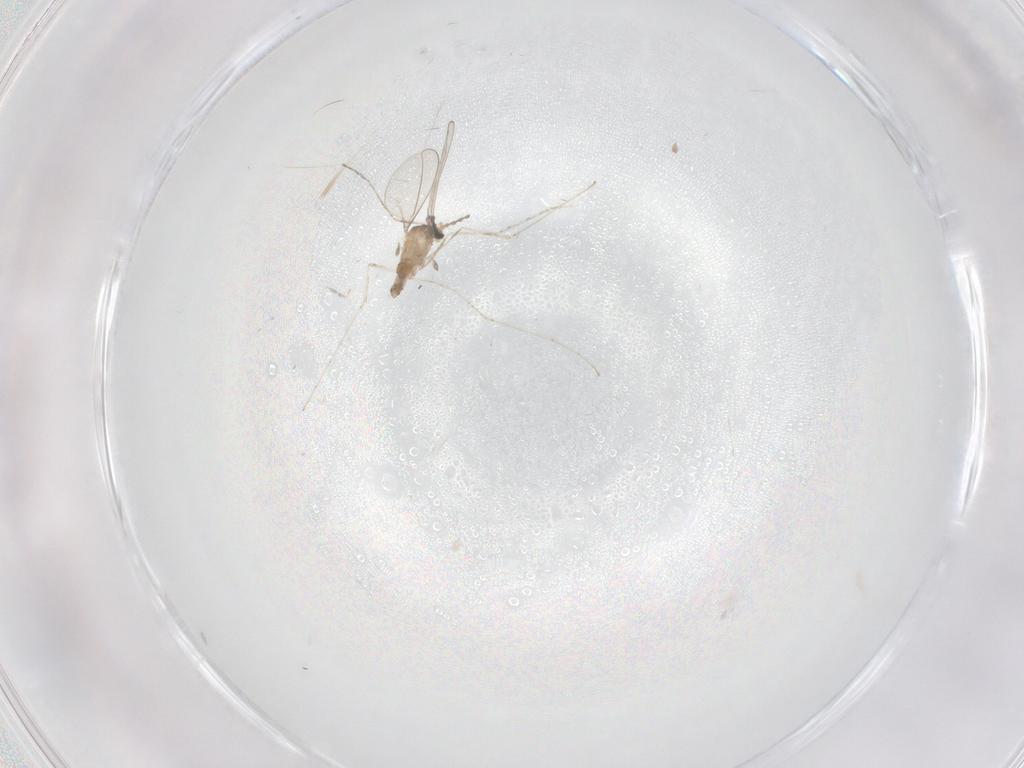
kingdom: Animalia
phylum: Arthropoda
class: Insecta
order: Diptera
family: Cecidomyiidae
